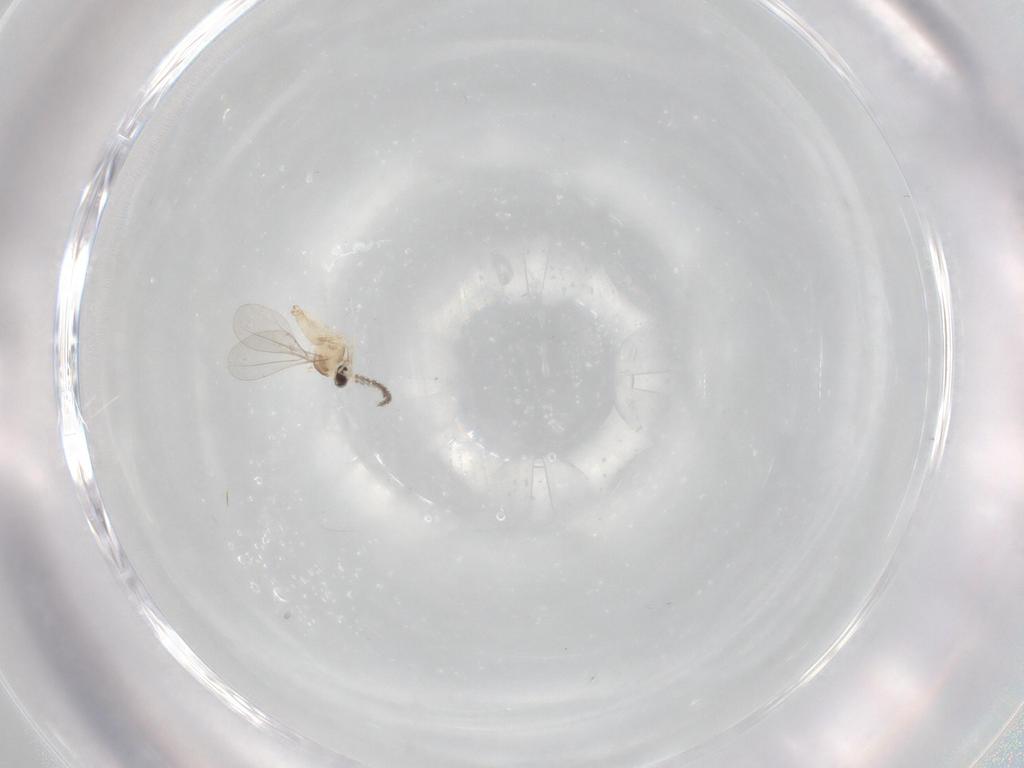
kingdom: Animalia
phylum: Arthropoda
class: Insecta
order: Diptera
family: Cecidomyiidae
